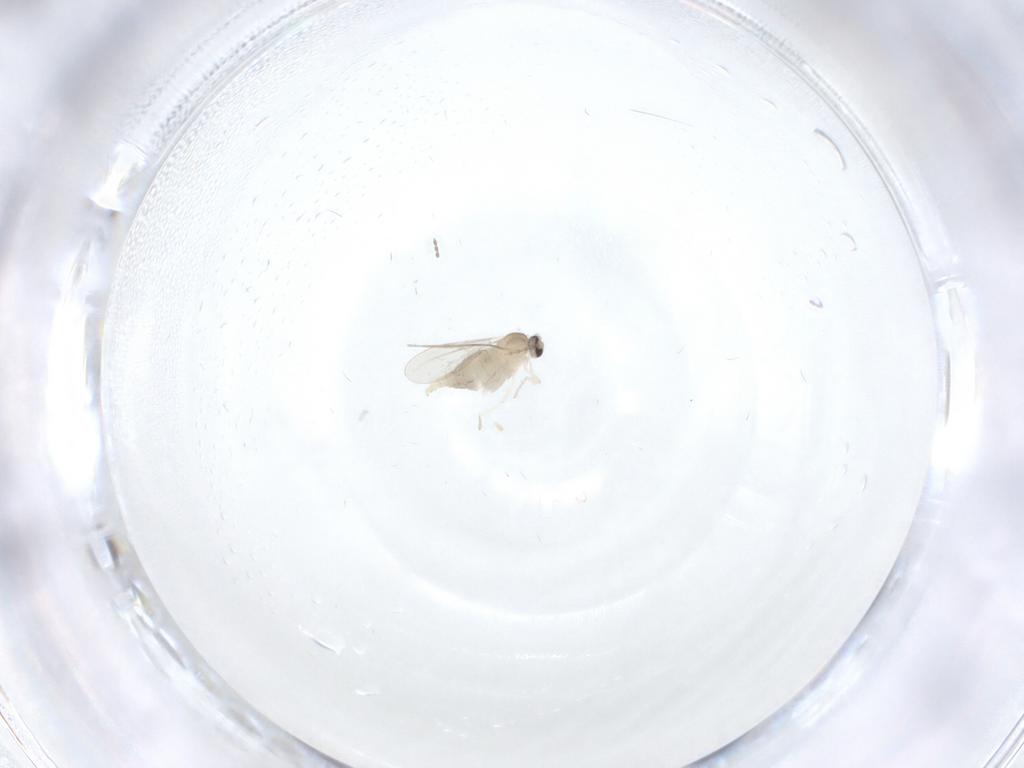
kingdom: Animalia
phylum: Arthropoda
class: Insecta
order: Diptera
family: Cecidomyiidae
